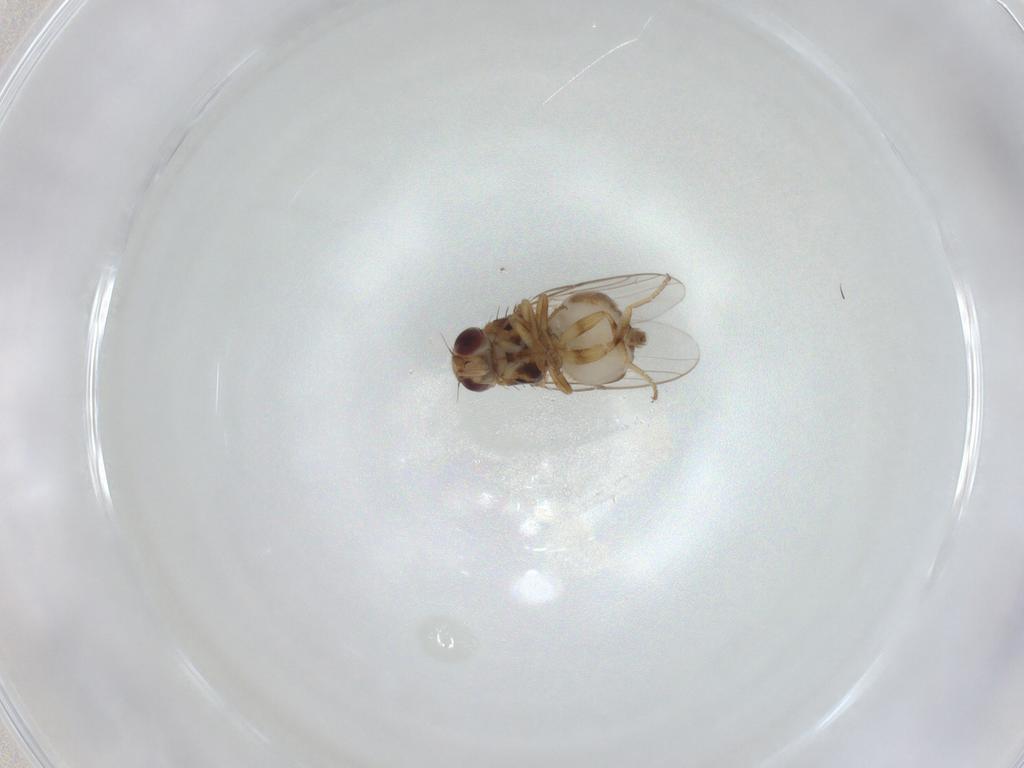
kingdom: Animalia
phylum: Arthropoda
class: Insecta
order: Diptera
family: Chloropidae
